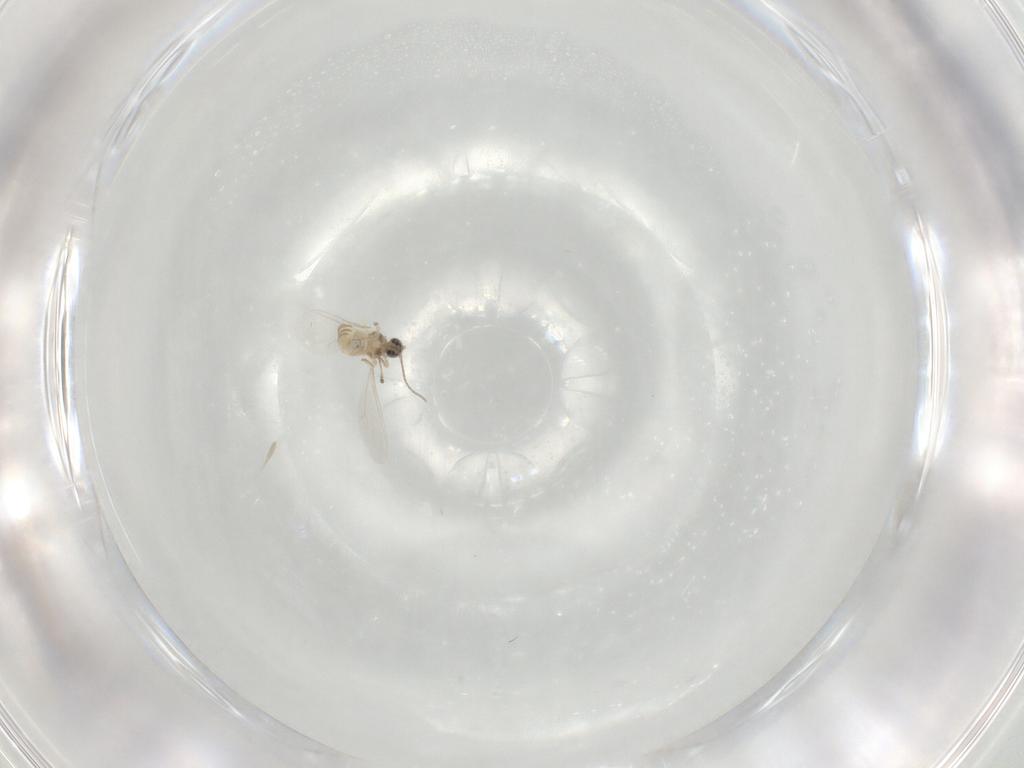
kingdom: Animalia
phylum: Arthropoda
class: Insecta
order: Diptera
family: Cecidomyiidae
